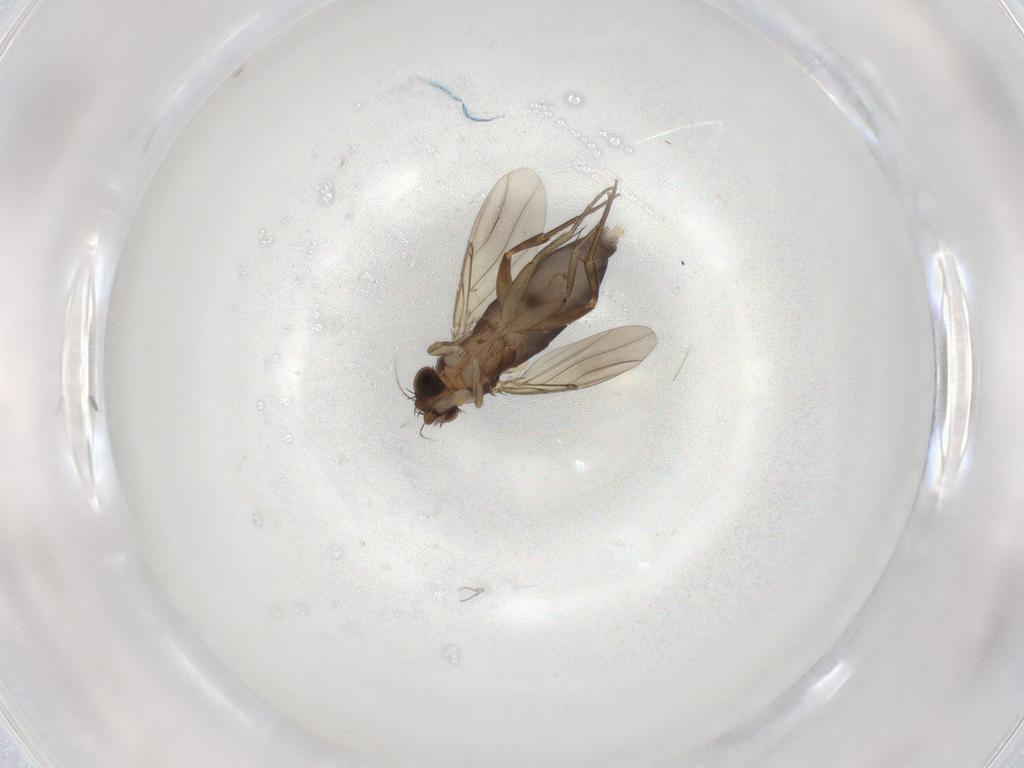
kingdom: Animalia
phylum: Arthropoda
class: Insecta
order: Diptera
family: Phoridae
